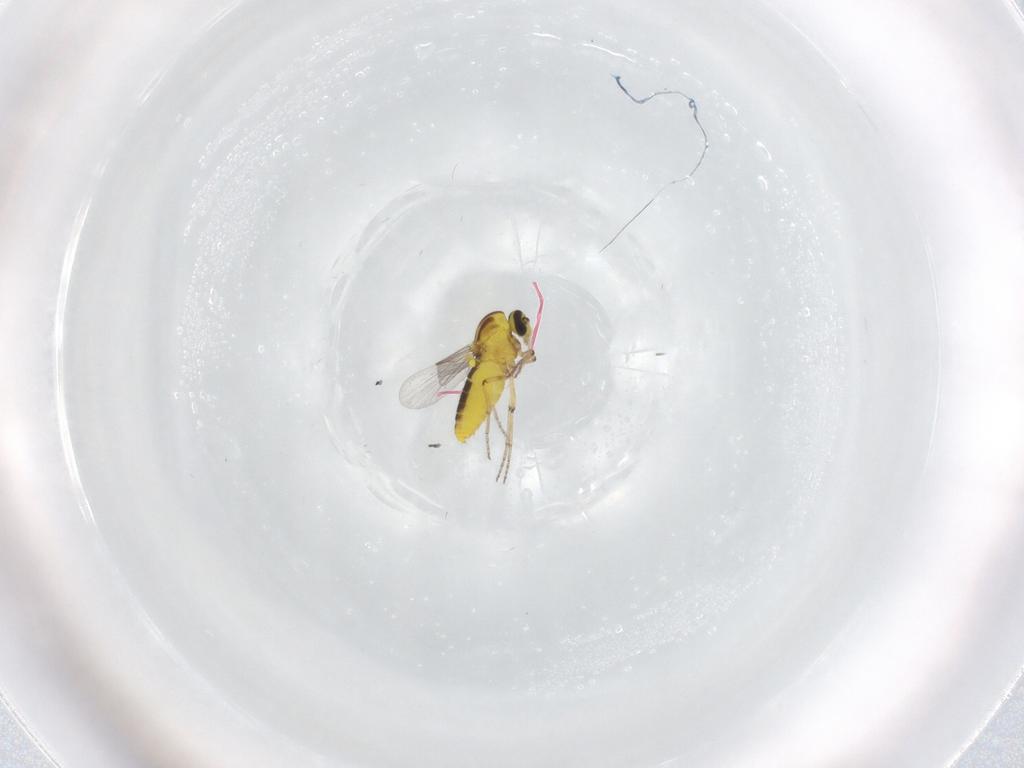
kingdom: Animalia
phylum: Arthropoda
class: Insecta
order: Diptera
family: Ceratopogonidae
